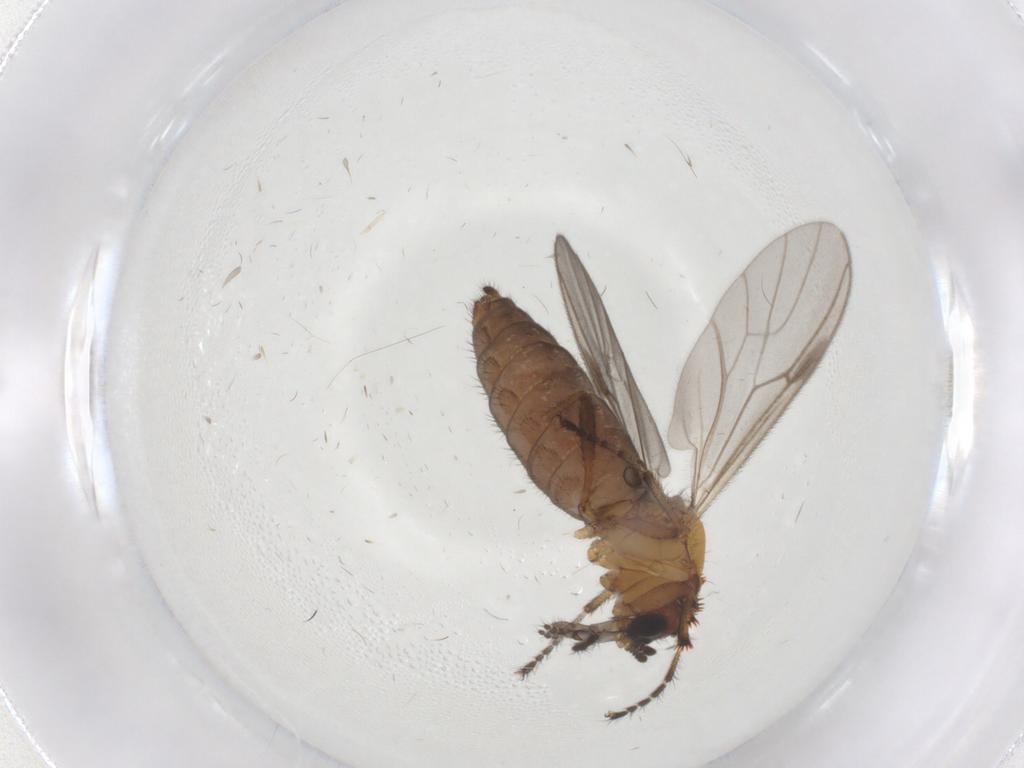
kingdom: Animalia
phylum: Arthropoda
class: Insecta
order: Diptera
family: Bibionidae
